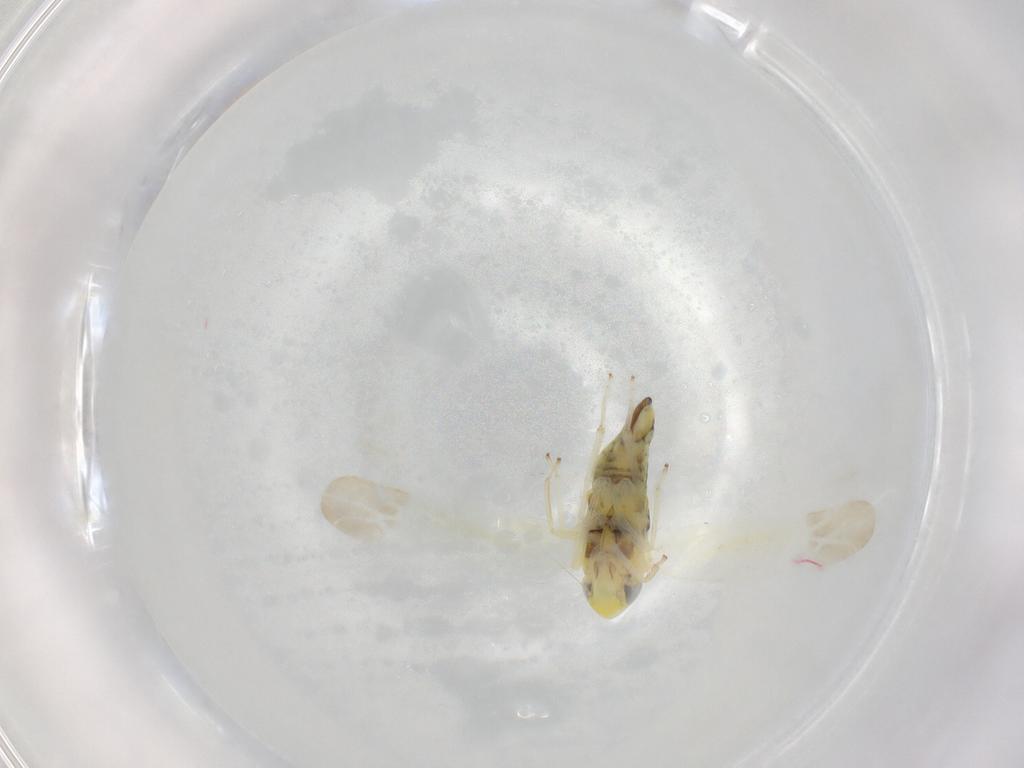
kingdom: Animalia
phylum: Arthropoda
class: Insecta
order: Hemiptera
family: Cicadellidae
